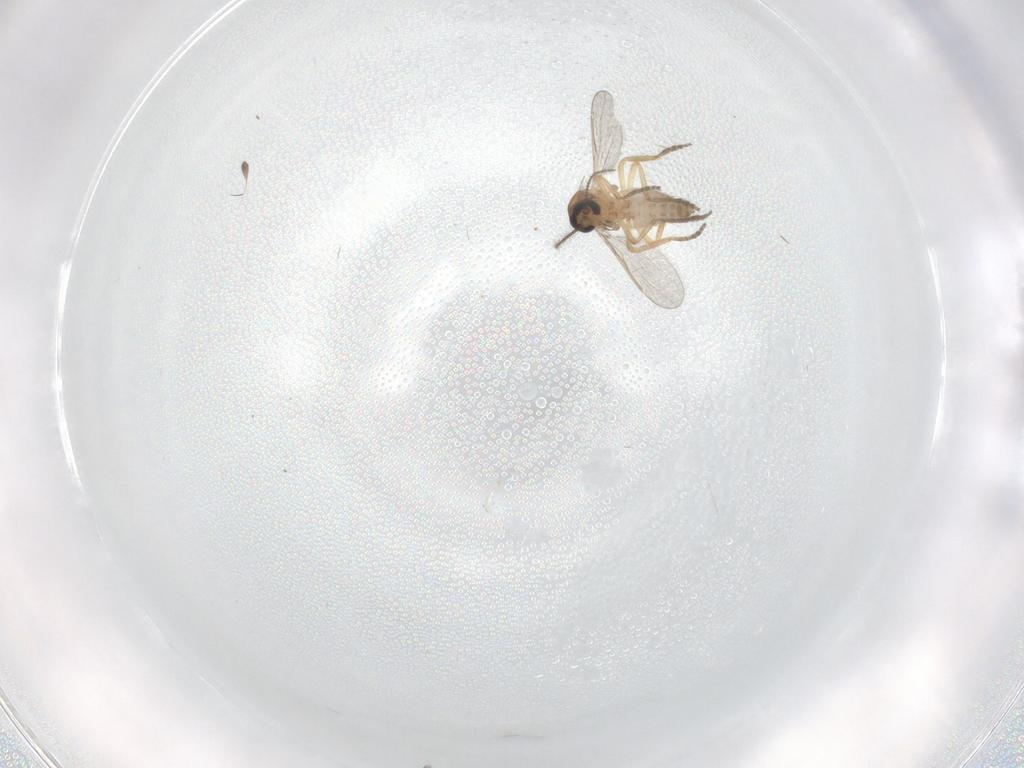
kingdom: Animalia
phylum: Arthropoda
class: Insecta
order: Diptera
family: Ceratopogonidae
